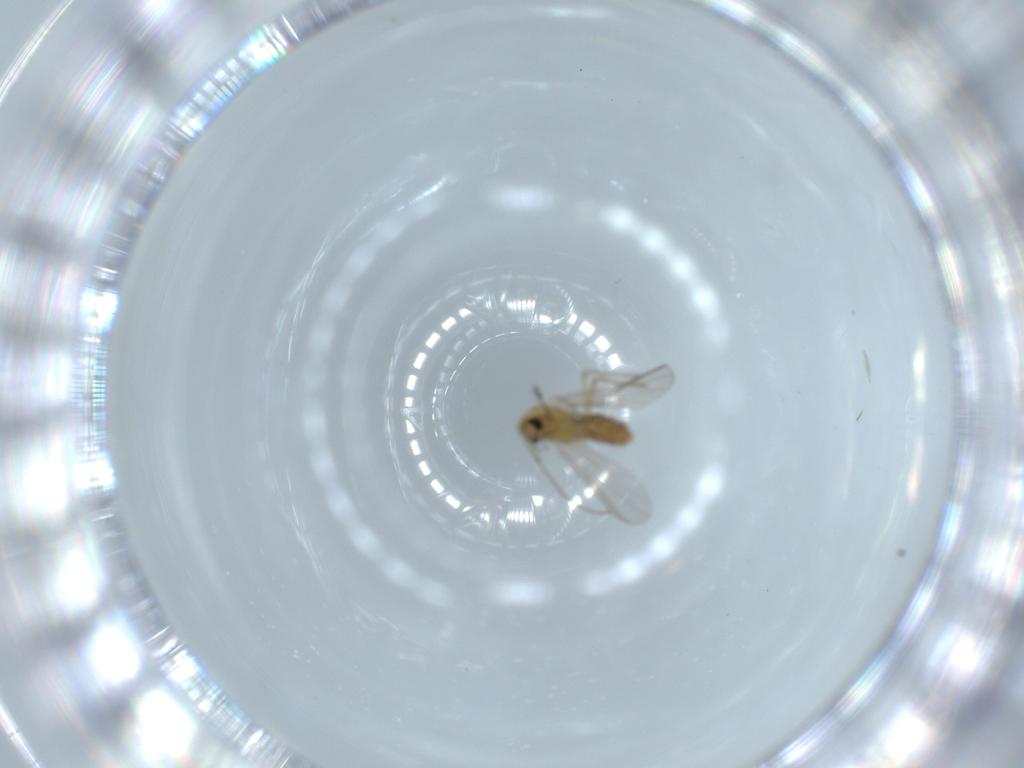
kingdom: Animalia
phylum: Arthropoda
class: Insecta
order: Diptera
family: Chironomidae
